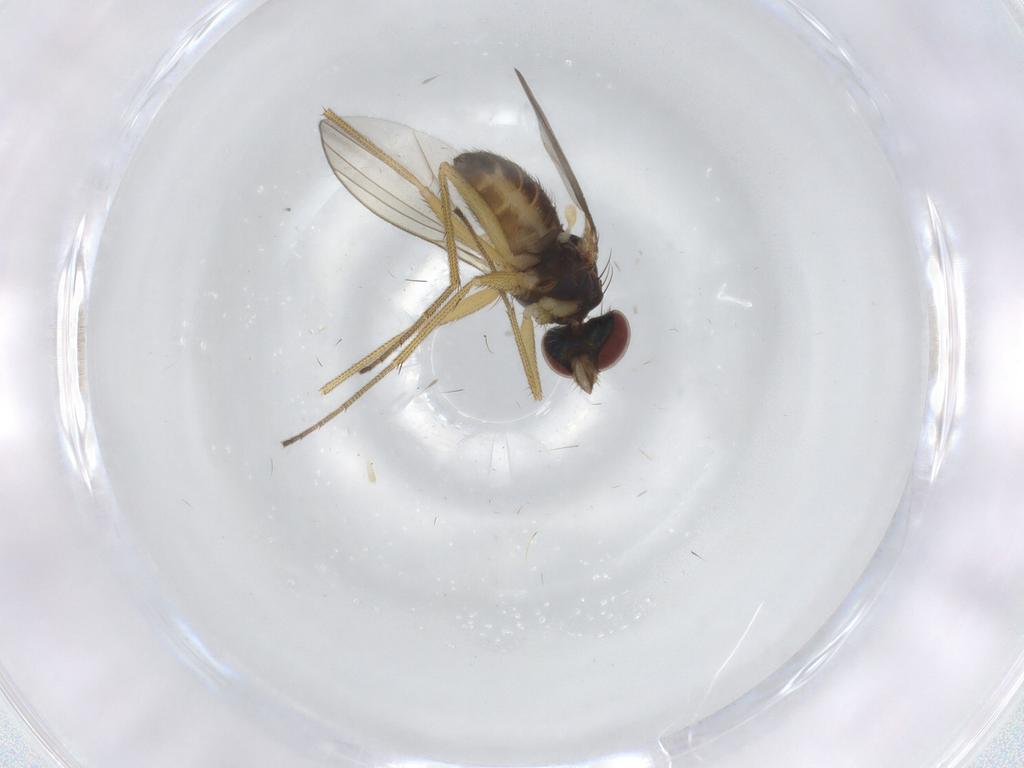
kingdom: Animalia
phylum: Arthropoda
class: Insecta
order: Diptera
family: Dolichopodidae
